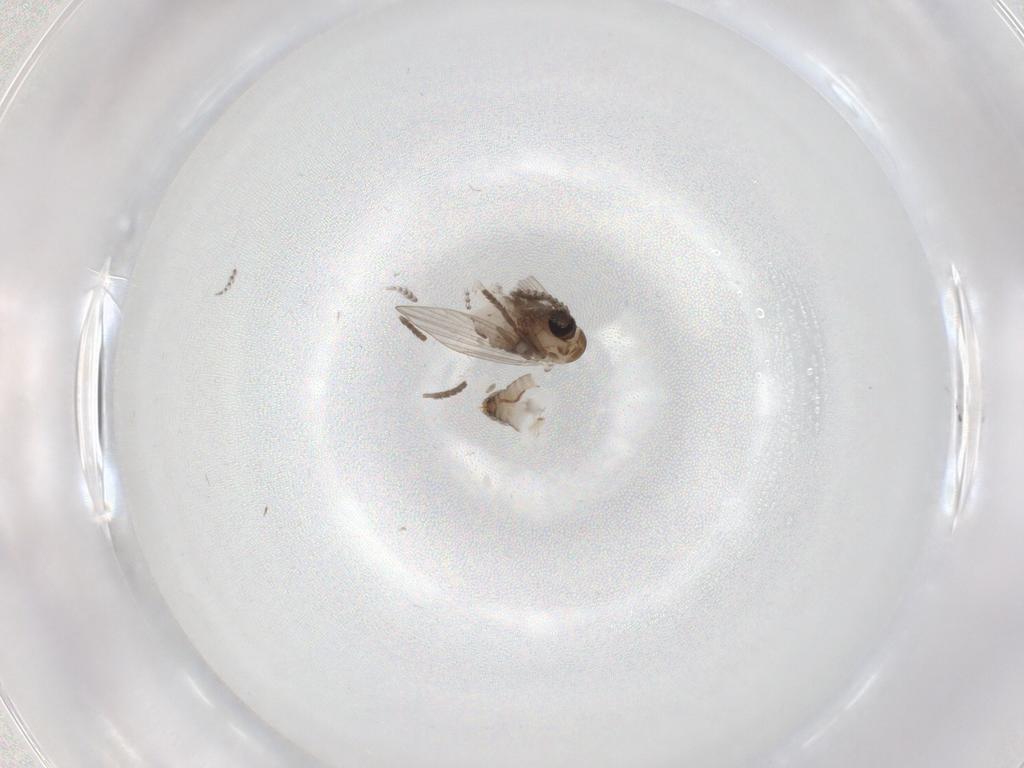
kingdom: Animalia
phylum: Arthropoda
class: Insecta
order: Diptera
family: Psychodidae
